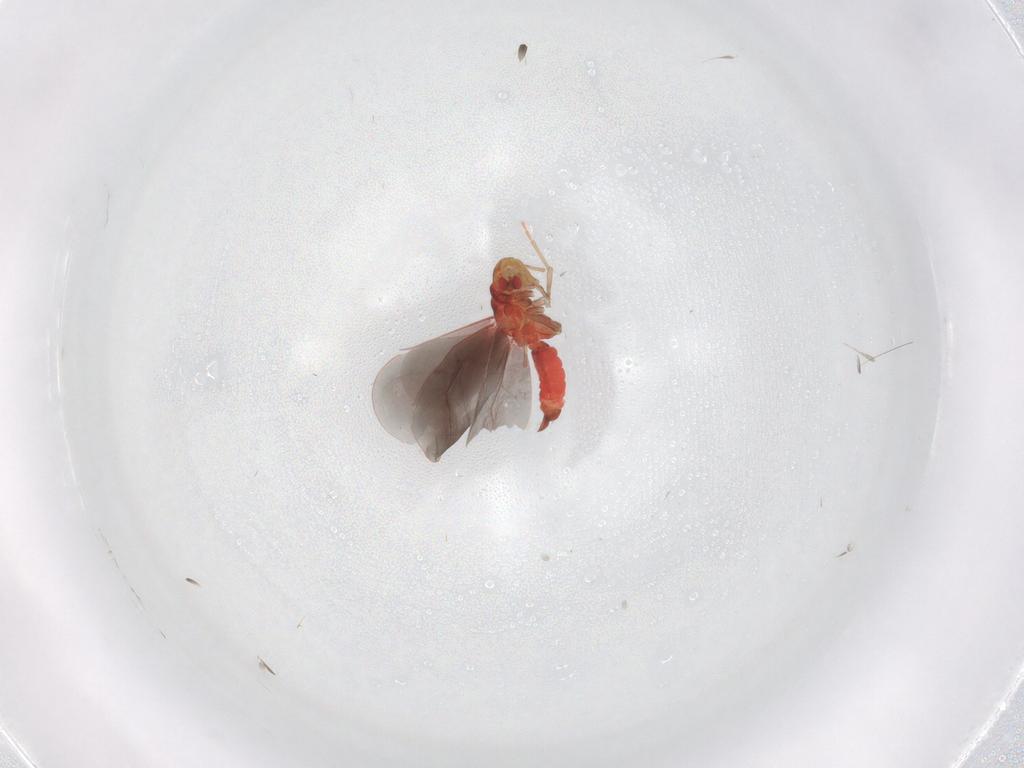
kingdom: Animalia
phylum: Arthropoda
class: Insecta
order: Hemiptera
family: Aleyrodidae
